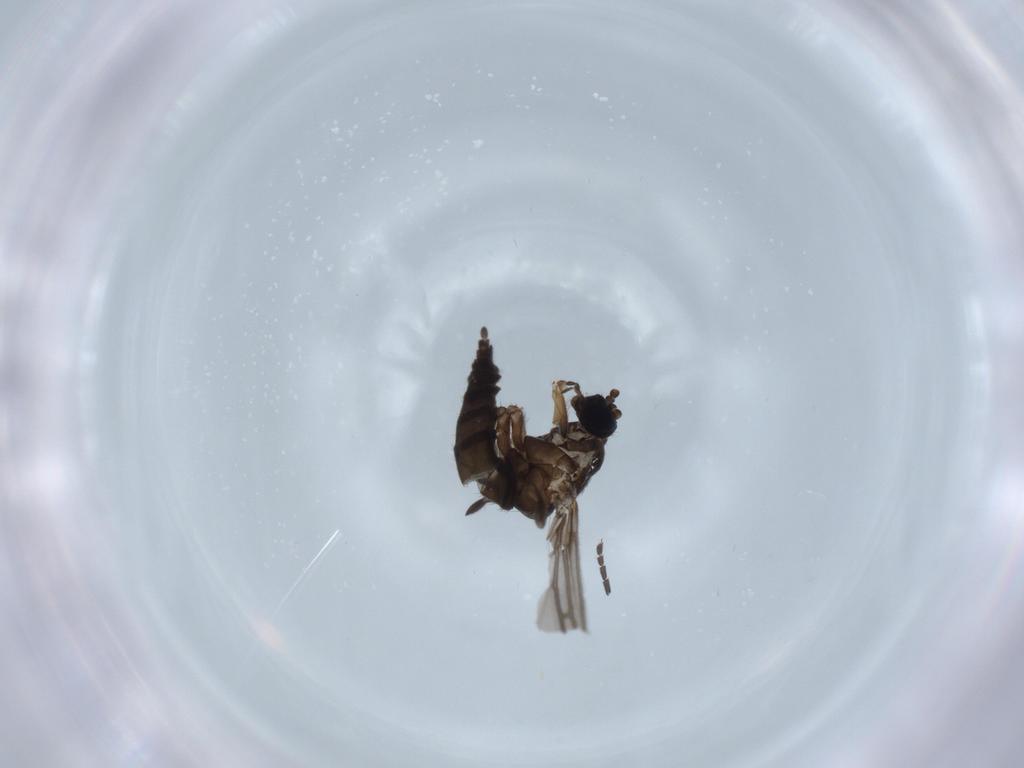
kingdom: Animalia
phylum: Arthropoda
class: Insecta
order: Diptera
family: Sciaridae
